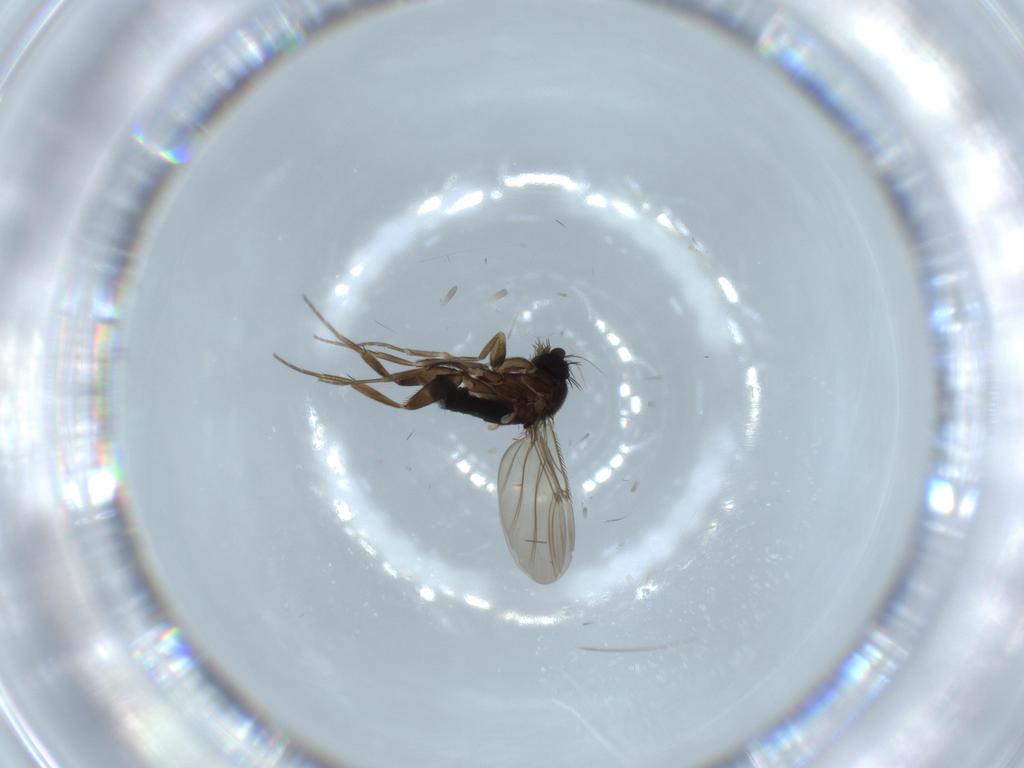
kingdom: Animalia
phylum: Arthropoda
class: Insecta
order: Diptera
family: Phoridae
